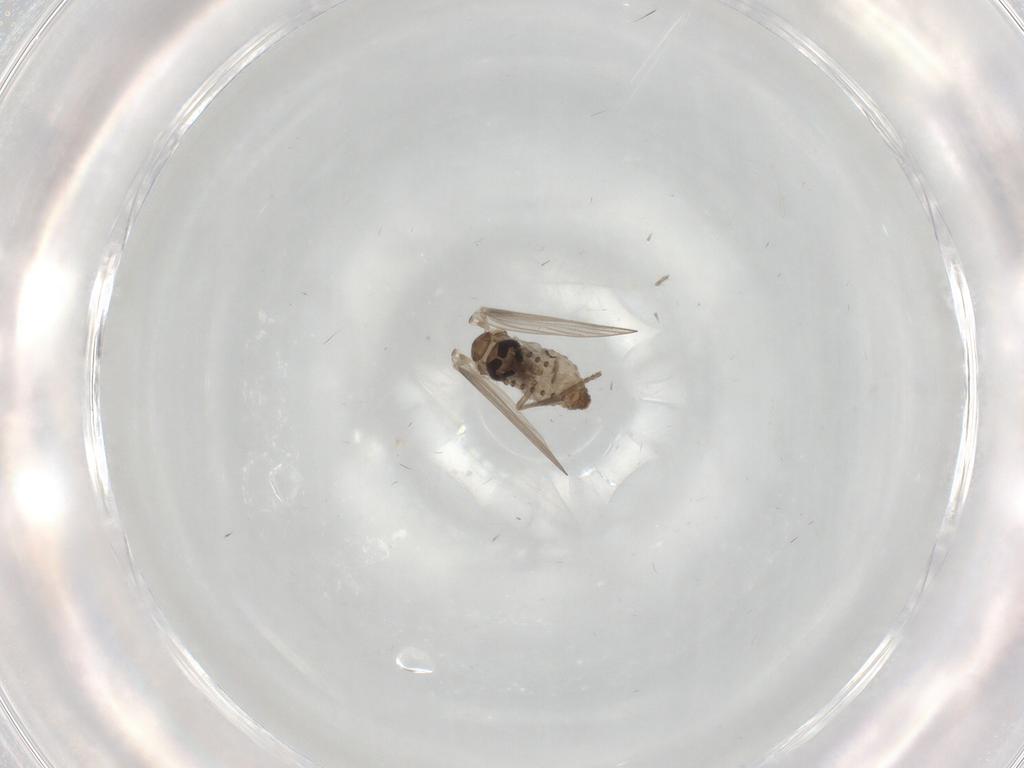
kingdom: Animalia
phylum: Arthropoda
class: Insecta
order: Diptera
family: Psychodidae
